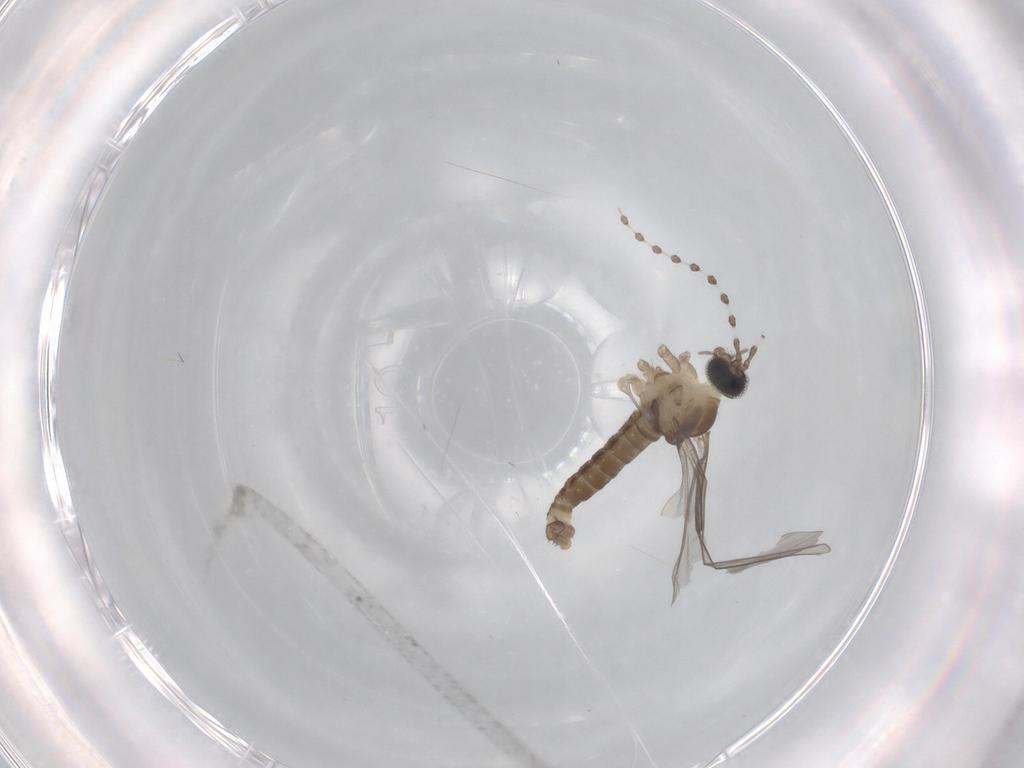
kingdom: Animalia
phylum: Arthropoda
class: Insecta
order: Diptera
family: Cecidomyiidae
